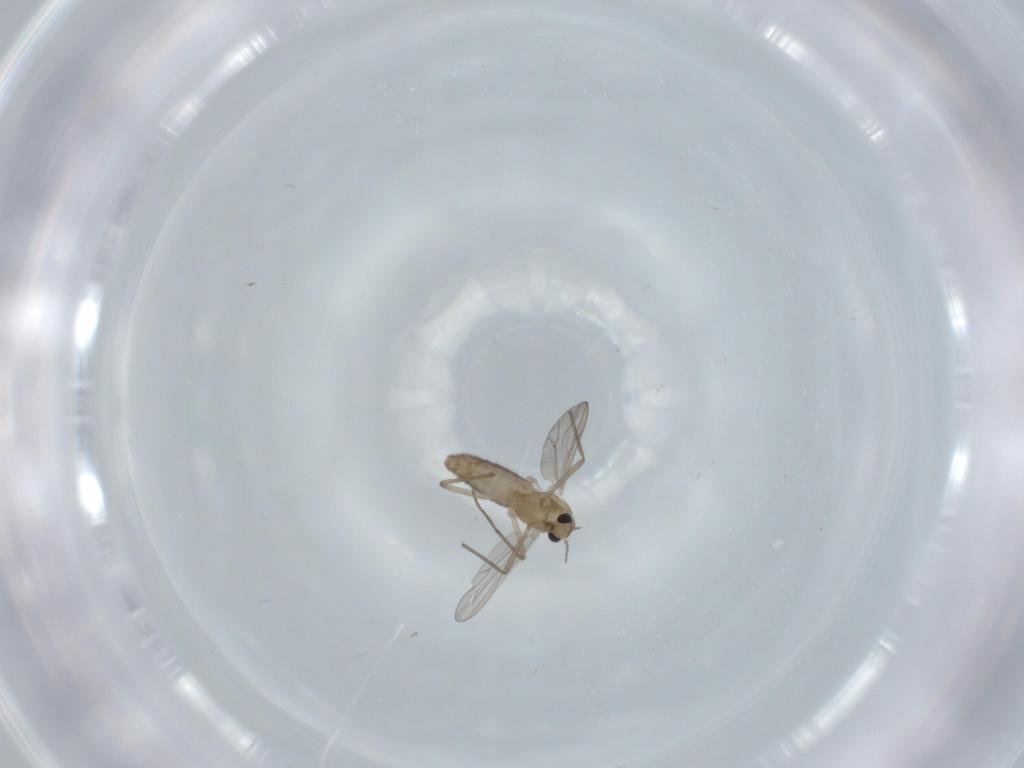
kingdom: Animalia
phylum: Arthropoda
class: Insecta
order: Diptera
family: Chironomidae
